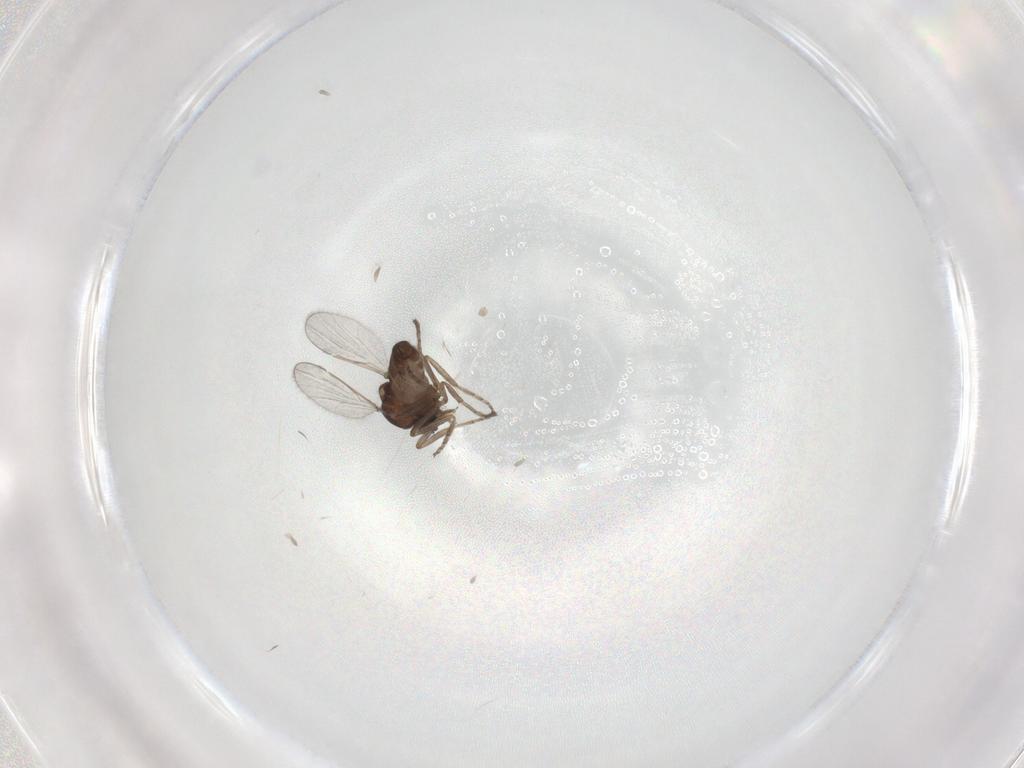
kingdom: Animalia
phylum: Arthropoda
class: Insecta
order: Diptera
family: Ceratopogonidae
